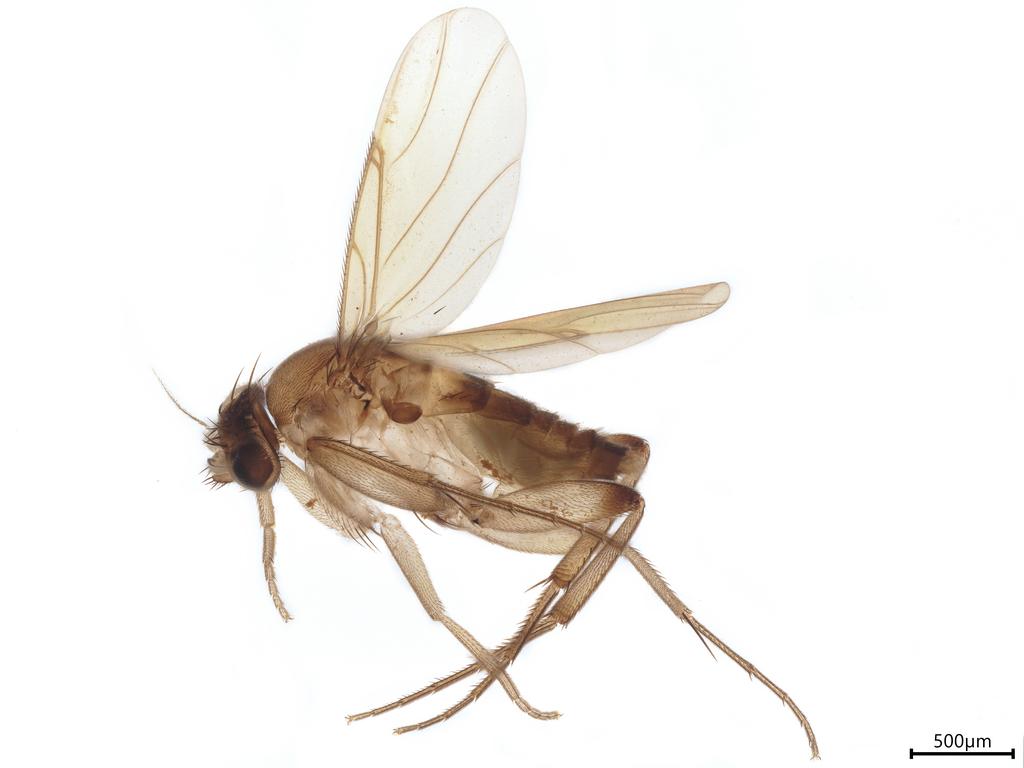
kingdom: Animalia
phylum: Arthropoda
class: Insecta
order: Diptera
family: Phoridae
